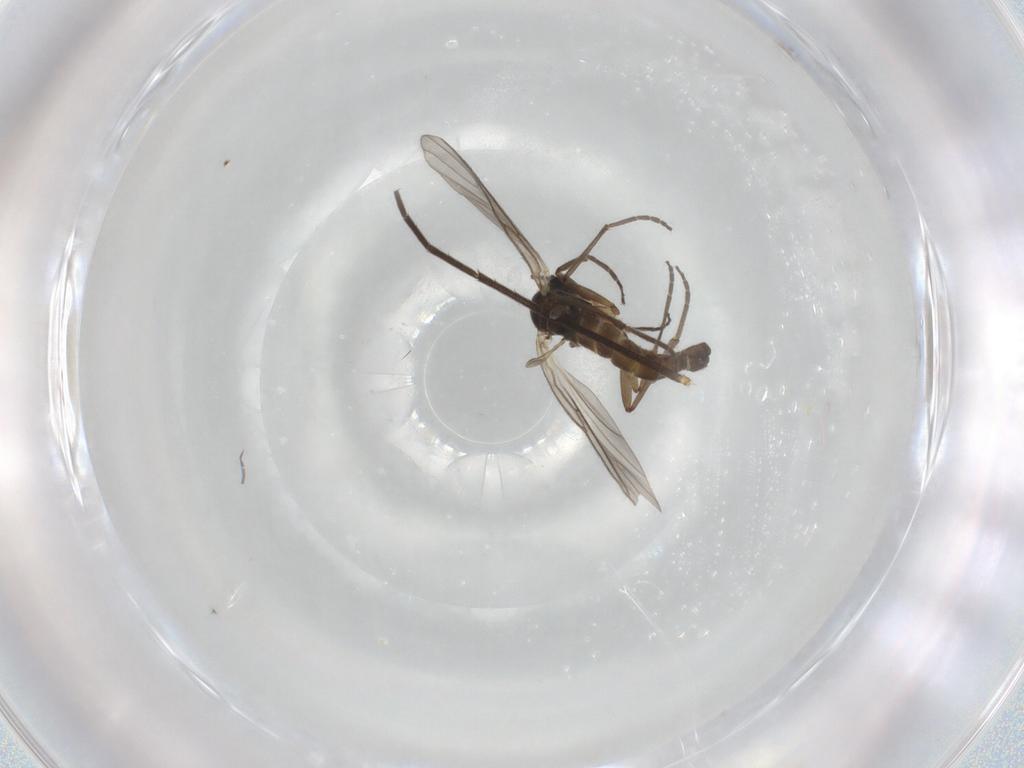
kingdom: Animalia
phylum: Arthropoda
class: Insecta
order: Diptera
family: Sciaridae
